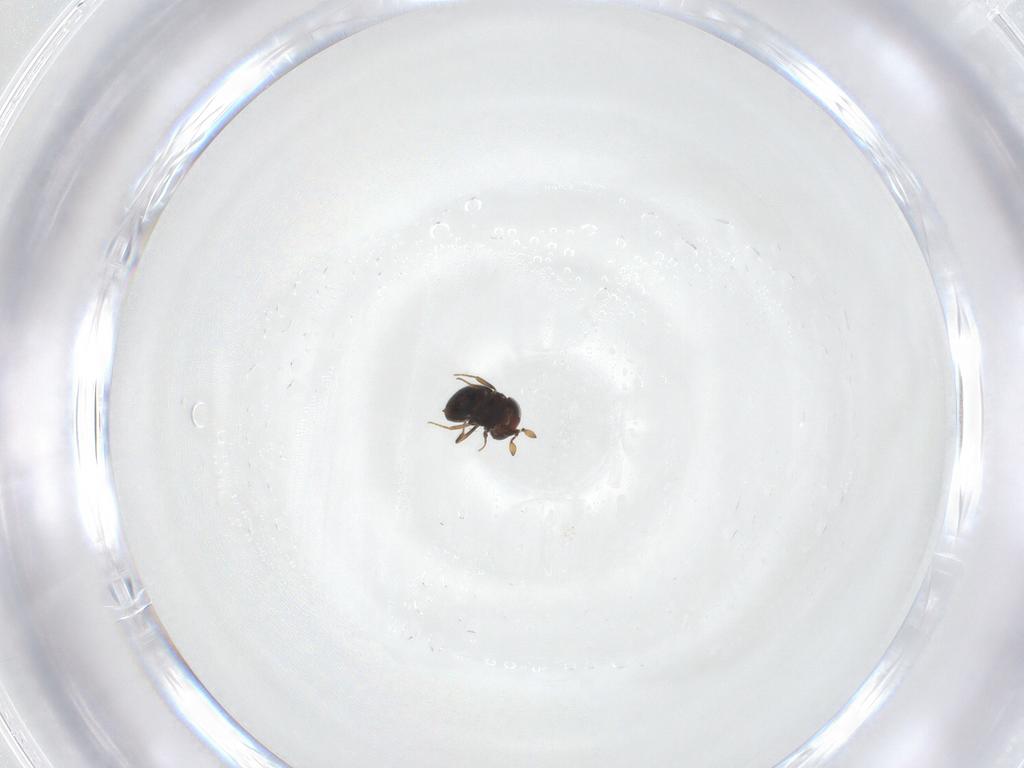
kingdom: Animalia
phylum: Arthropoda
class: Insecta
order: Hymenoptera
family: Scelionidae
